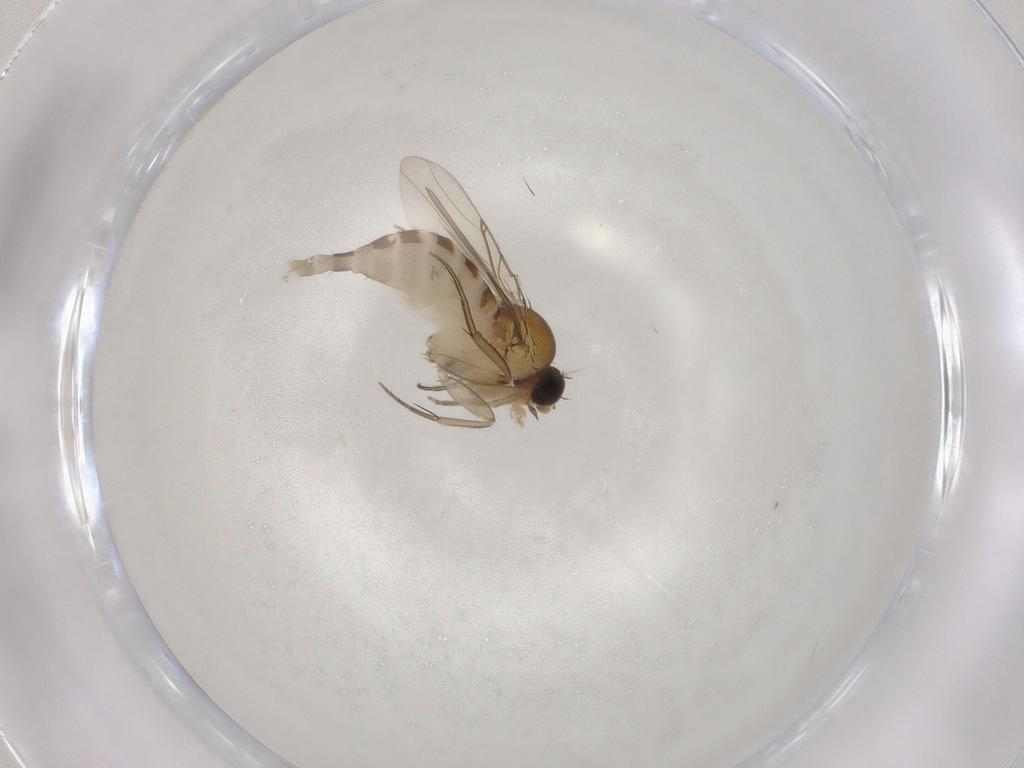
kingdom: Animalia
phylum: Arthropoda
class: Insecta
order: Diptera
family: Phoridae
